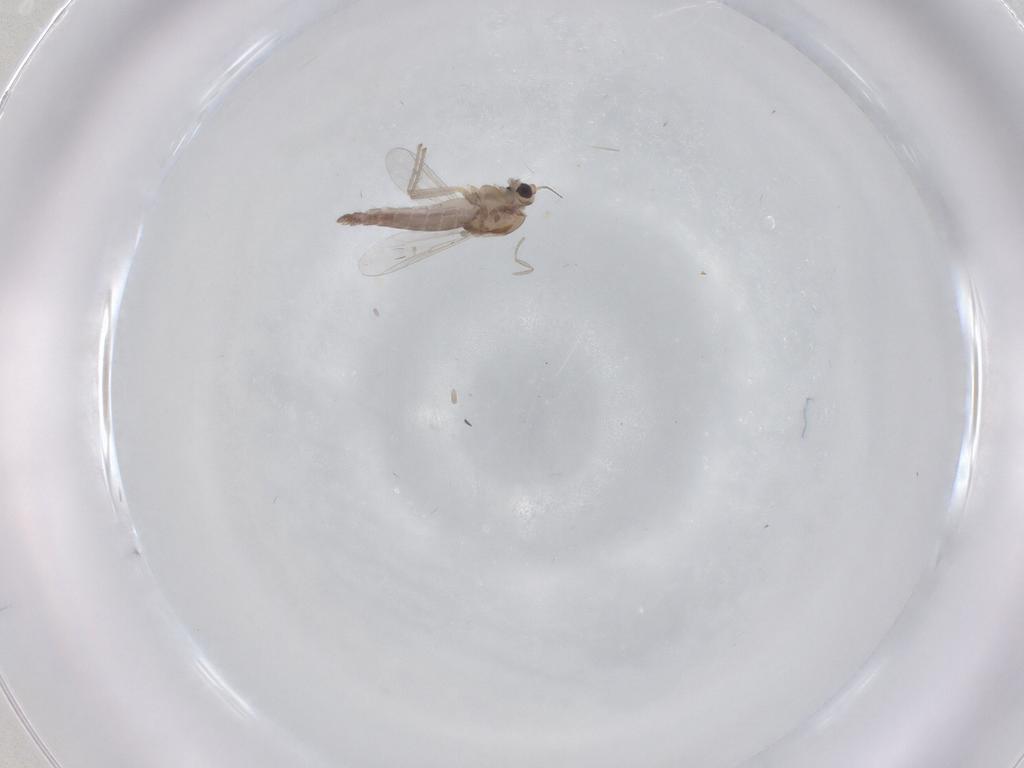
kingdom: Animalia
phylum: Arthropoda
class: Insecta
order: Diptera
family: Chironomidae
